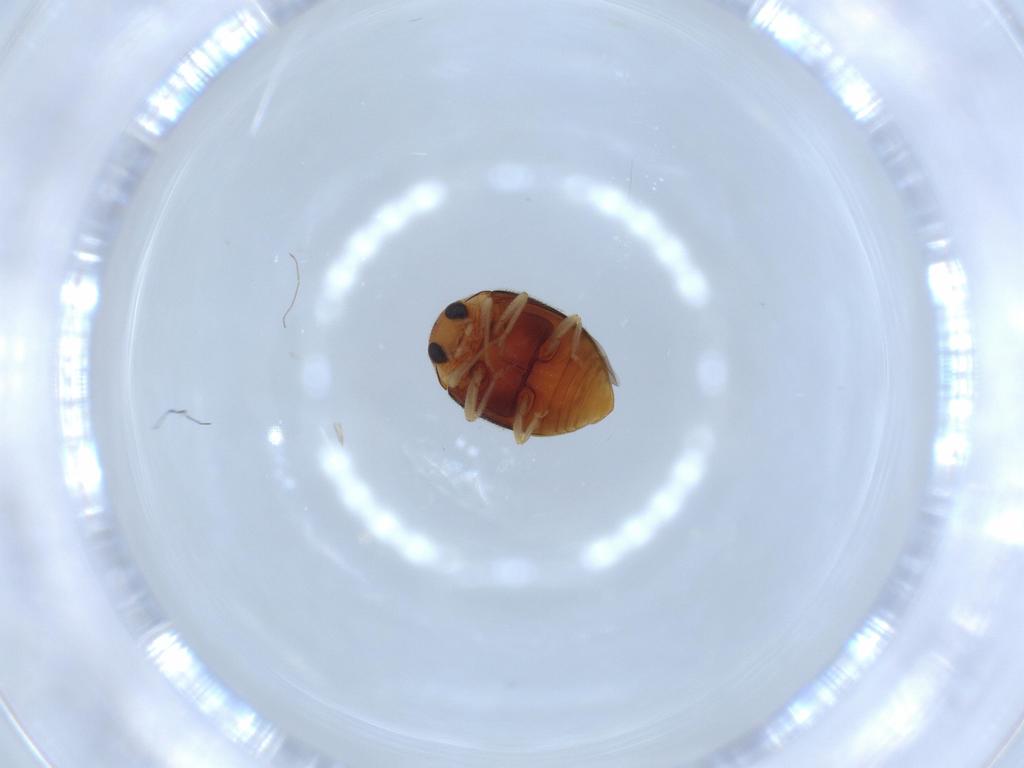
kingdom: Animalia
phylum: Arthropoda
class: Insecta
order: Coleoptera
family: Coccinellidae
